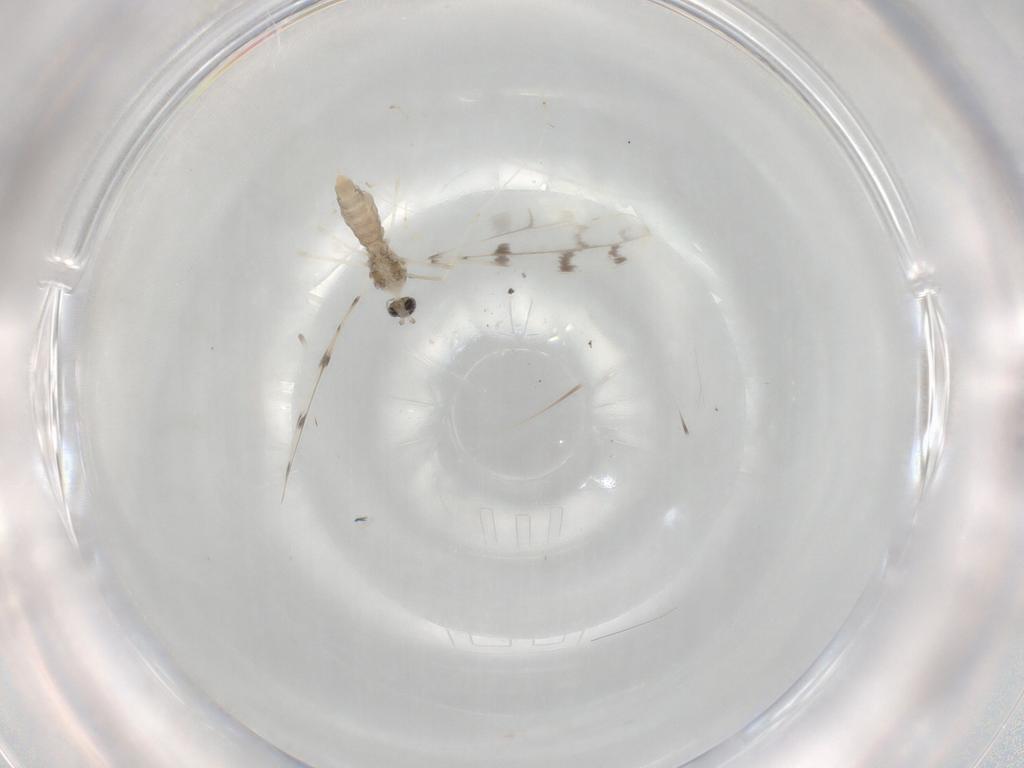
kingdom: Animalia
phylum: Arthropoda
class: Insecta
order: Diptera
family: Cecidomyiidae
